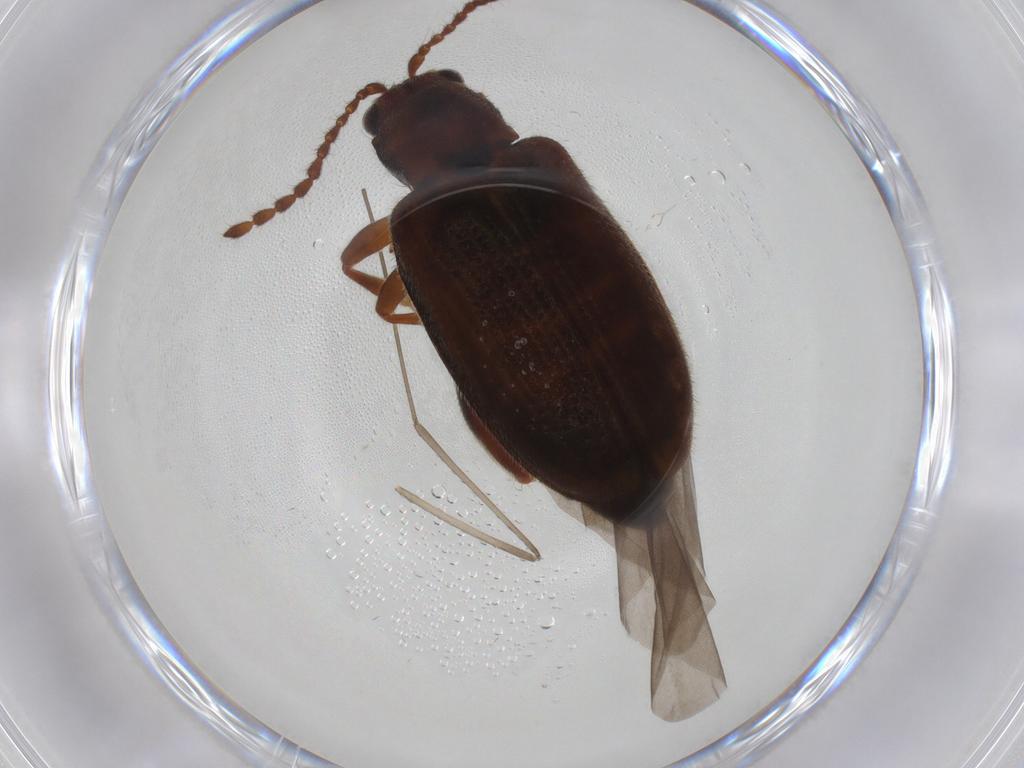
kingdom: Animalia
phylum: Arthropoda
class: Insecta
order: Coleoptera
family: Chrysomelidae
